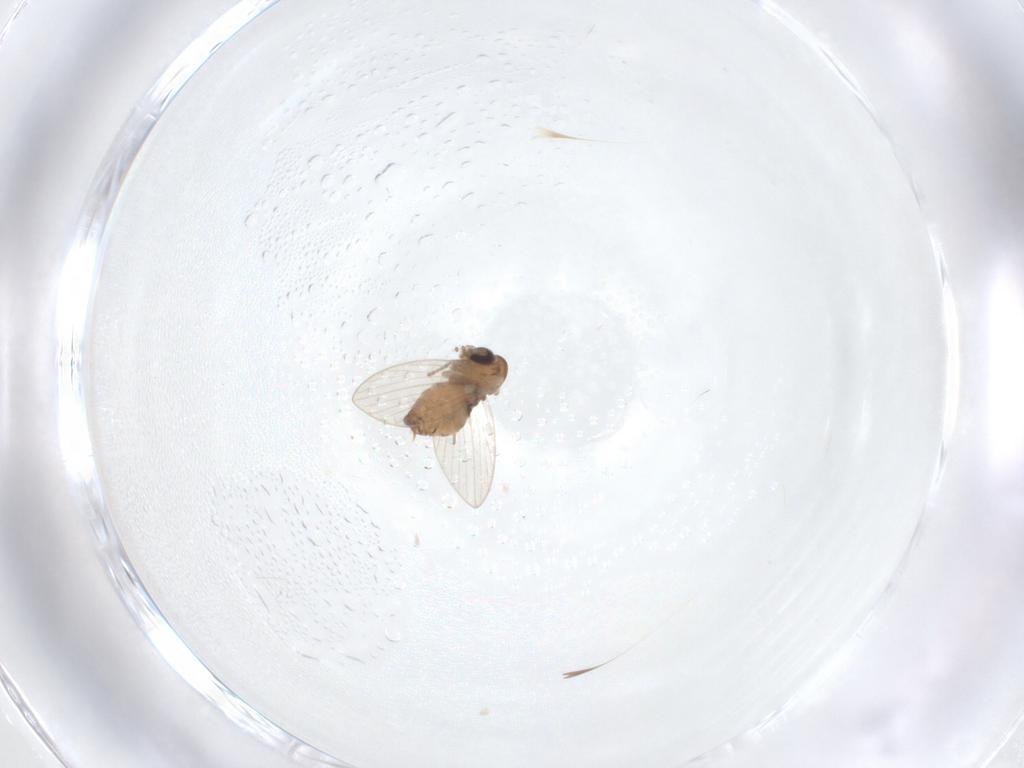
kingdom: Animalia
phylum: Arthropoda
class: Insecta
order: Diptera
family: Psychodidae
